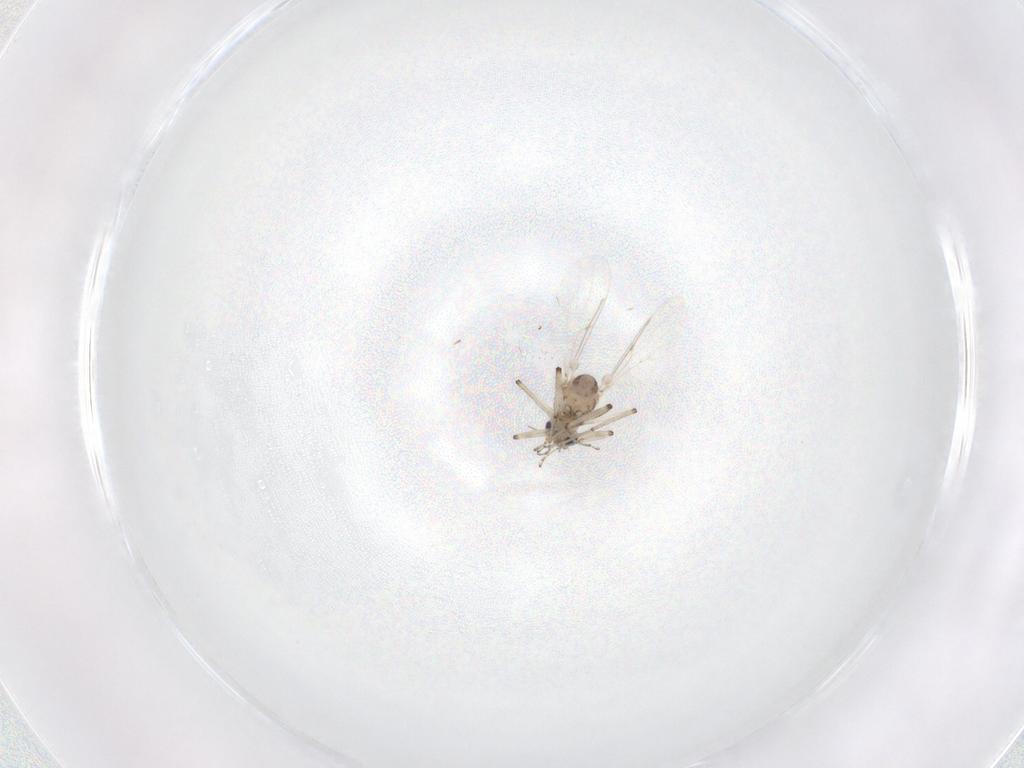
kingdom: Animalia
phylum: Arthropoda
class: Insecta
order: Diptera
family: Ceratopogonidae
